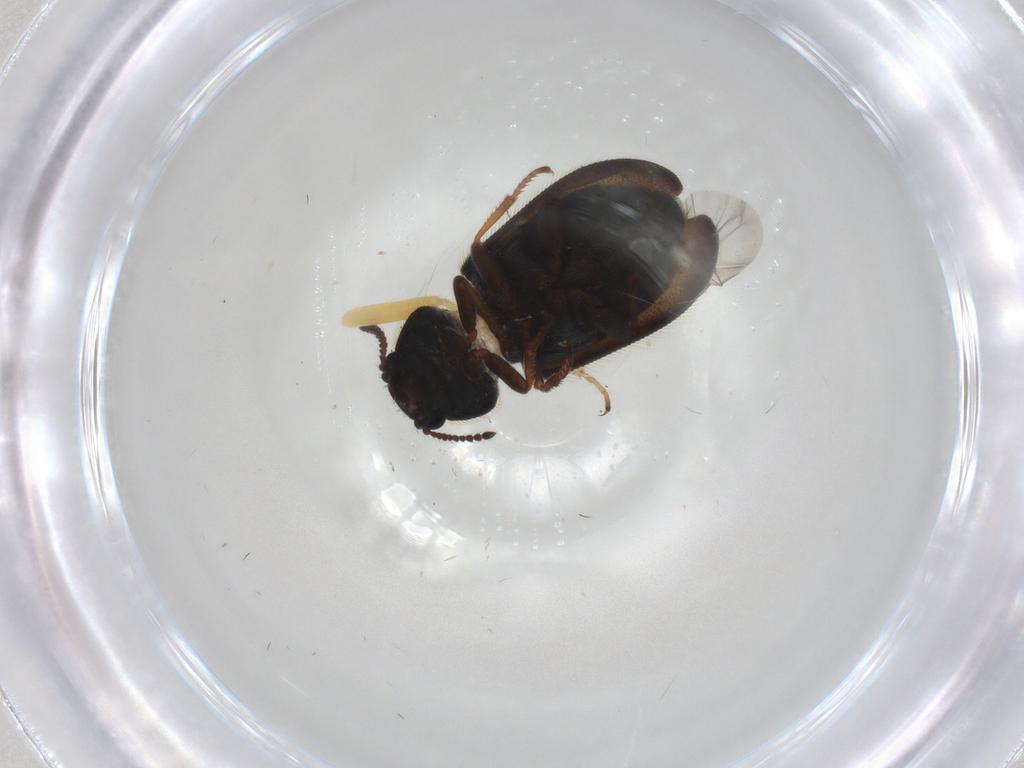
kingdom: Animalia
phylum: Arthropoda
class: Insecta
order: Coleoptera
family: Melyridae
